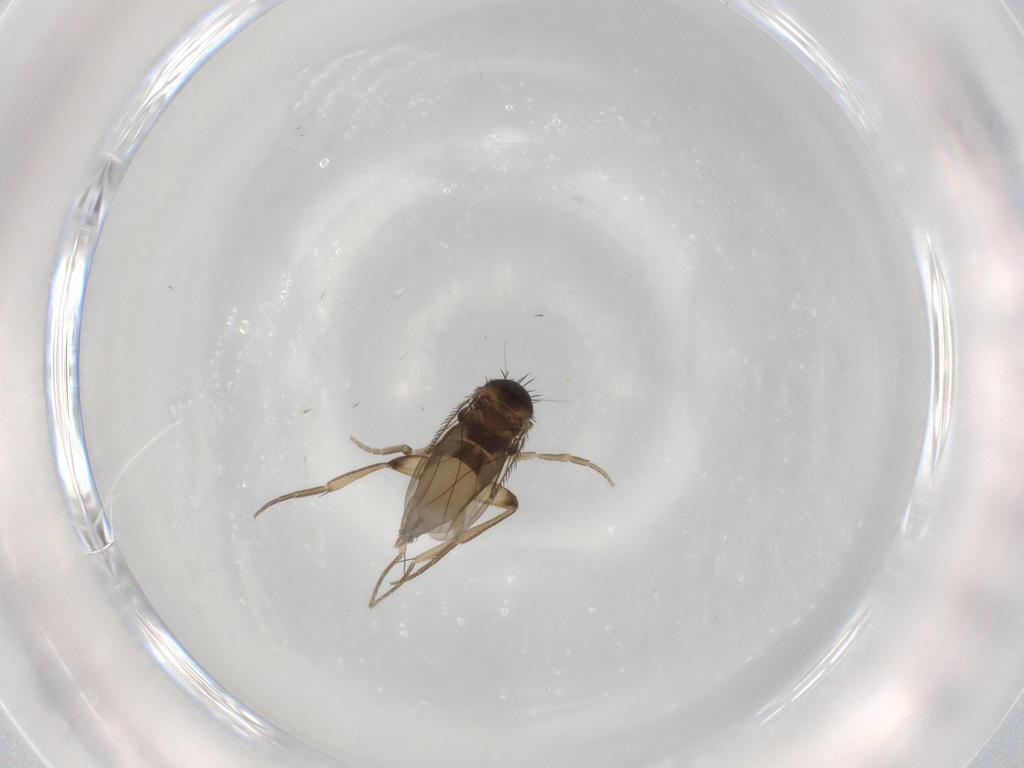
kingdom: Animalia
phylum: Arthropoda
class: Insecta
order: Diptera
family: Phoridae
